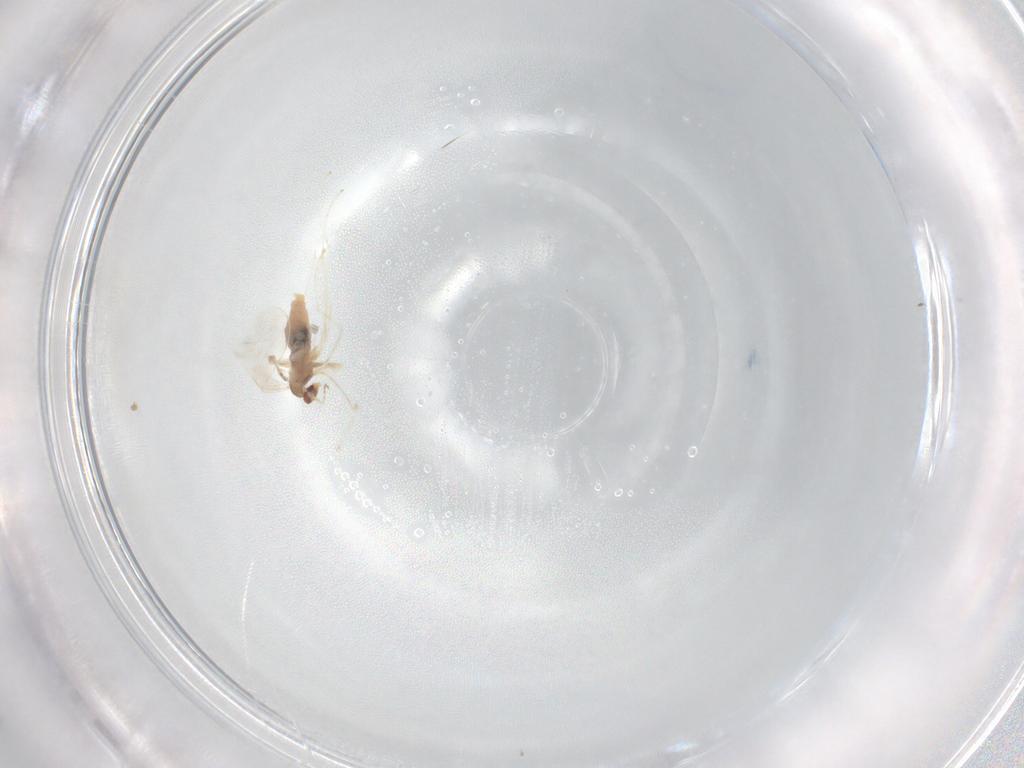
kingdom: Animalia
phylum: Arthropoda
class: Insecta
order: Diptera
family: Cecidomyiidae
